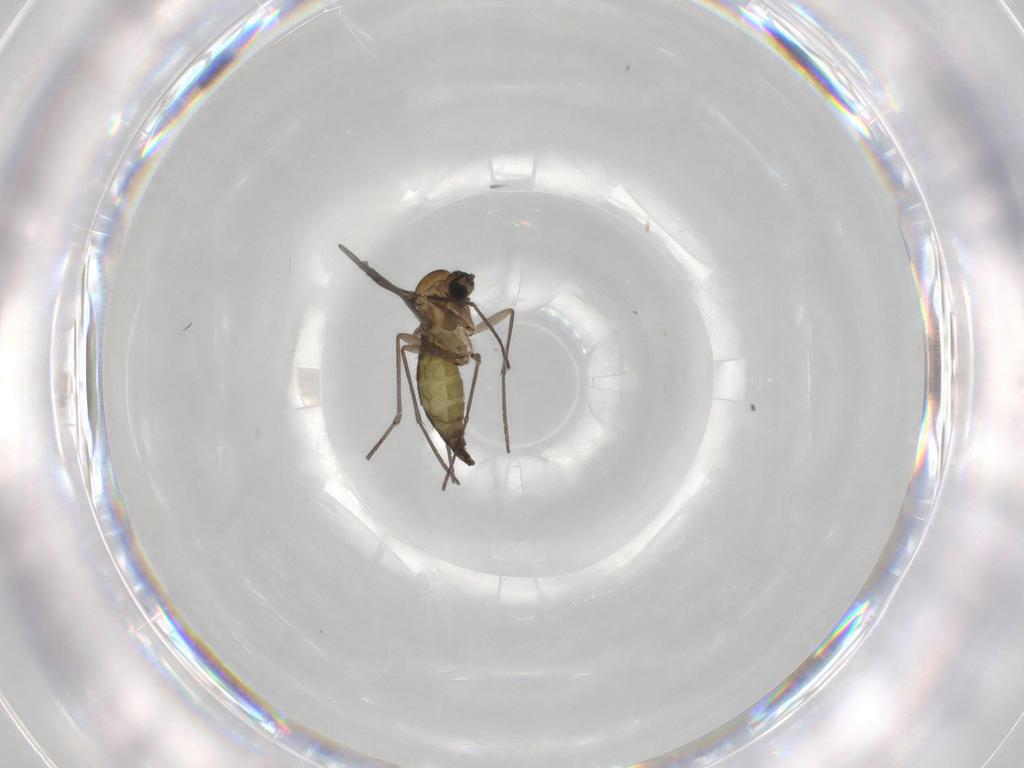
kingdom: Animalia
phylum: Arthropoda
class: Insecta
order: Diptera
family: Sciaridae
